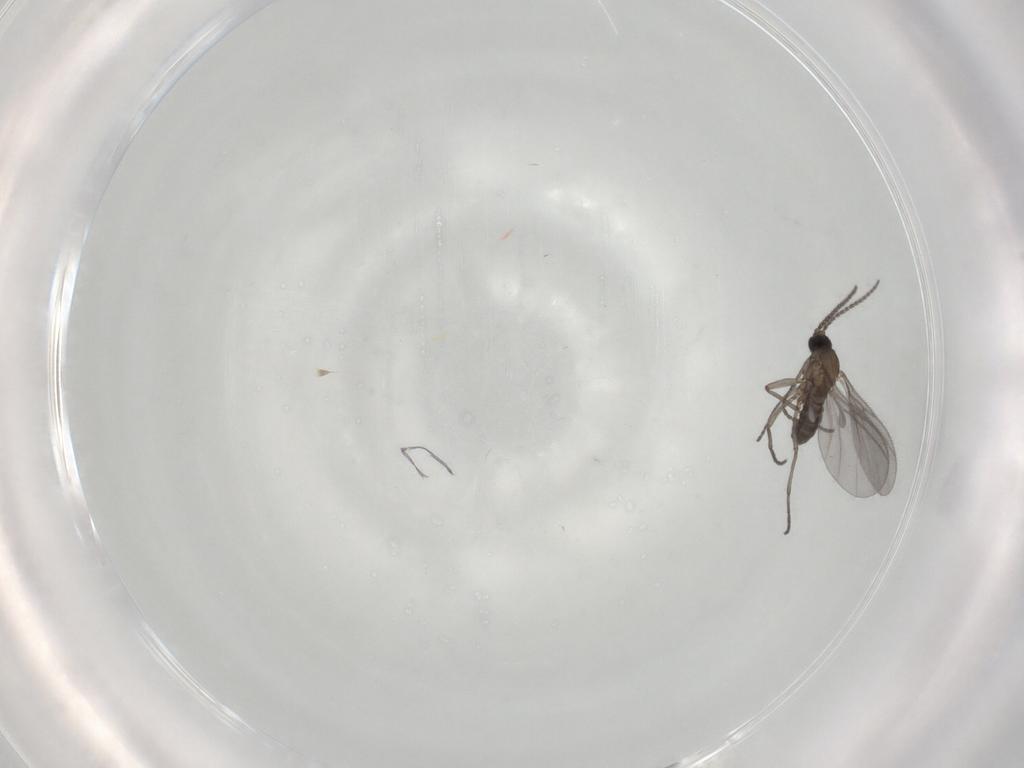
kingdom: Animalia
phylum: Arthropoda
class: Insecta
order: Diptera
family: Sciaridae
